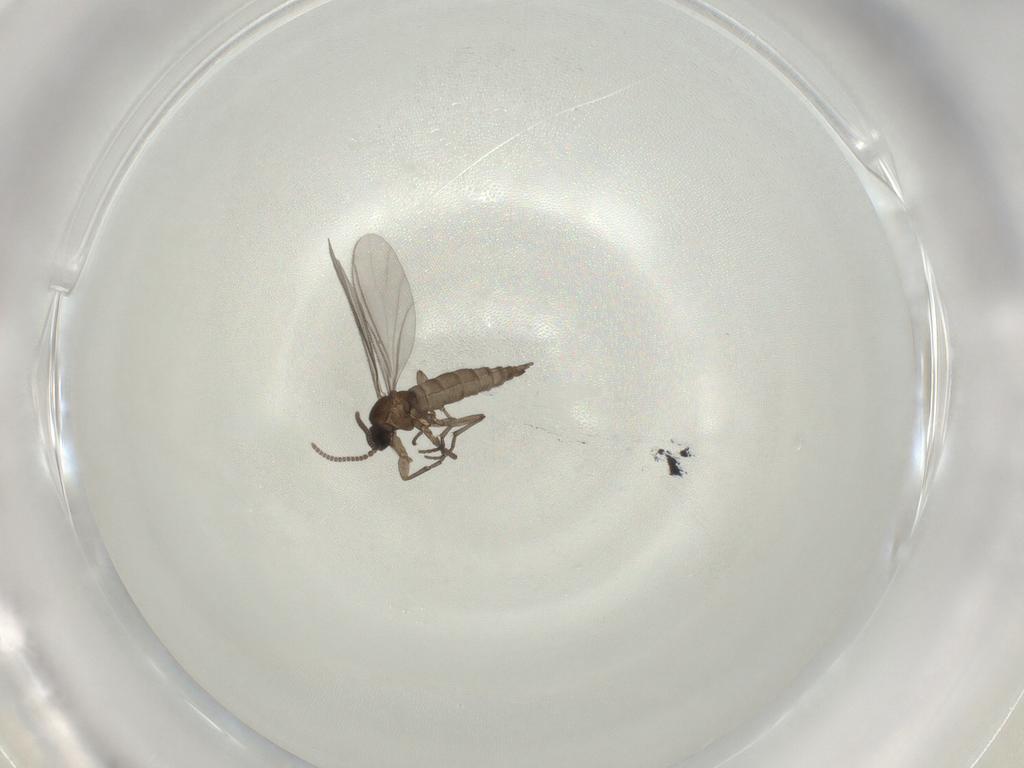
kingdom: Animalia
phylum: Arthropoda
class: Insecta
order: Diptera
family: Sciaridae
